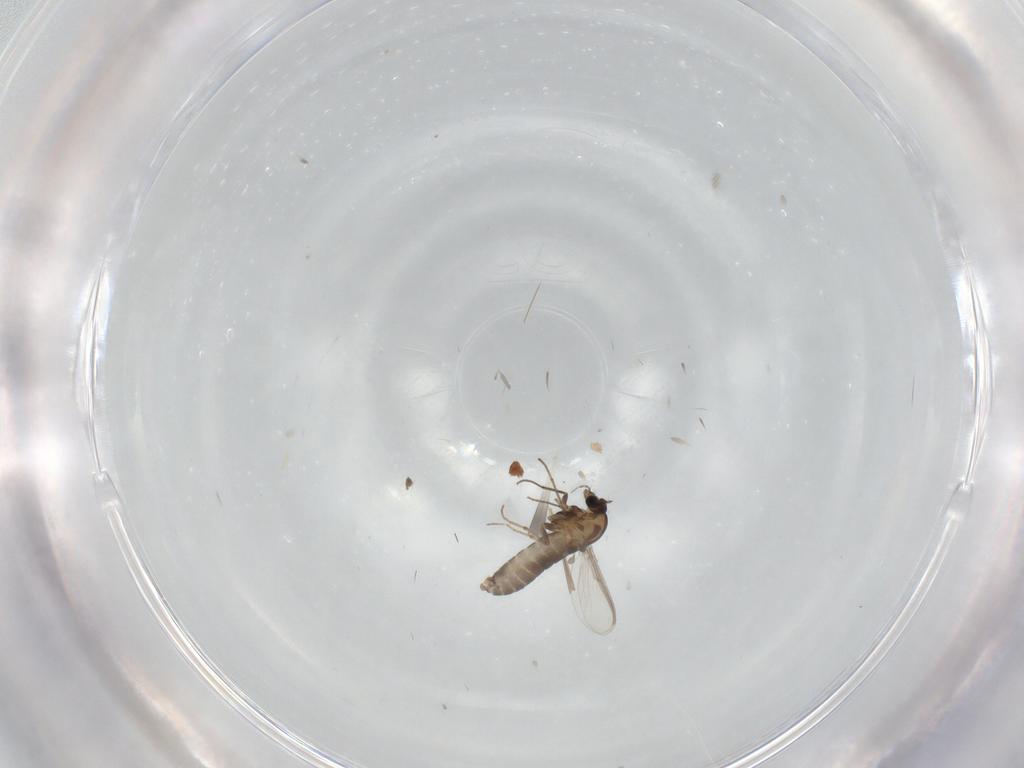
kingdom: Animalia
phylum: Arthropoda
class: Insecta
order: Diptera
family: Chironomidae
